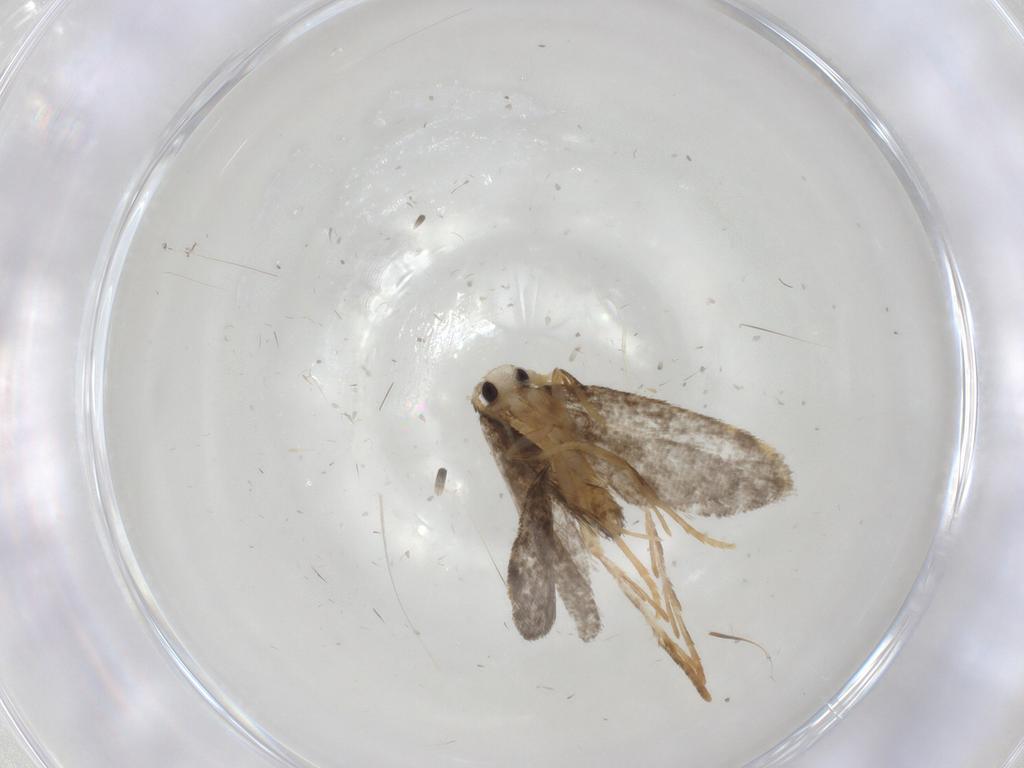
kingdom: Animalia
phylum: Arthropoda
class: Insecta
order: Lepidoptera
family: Psychidae
